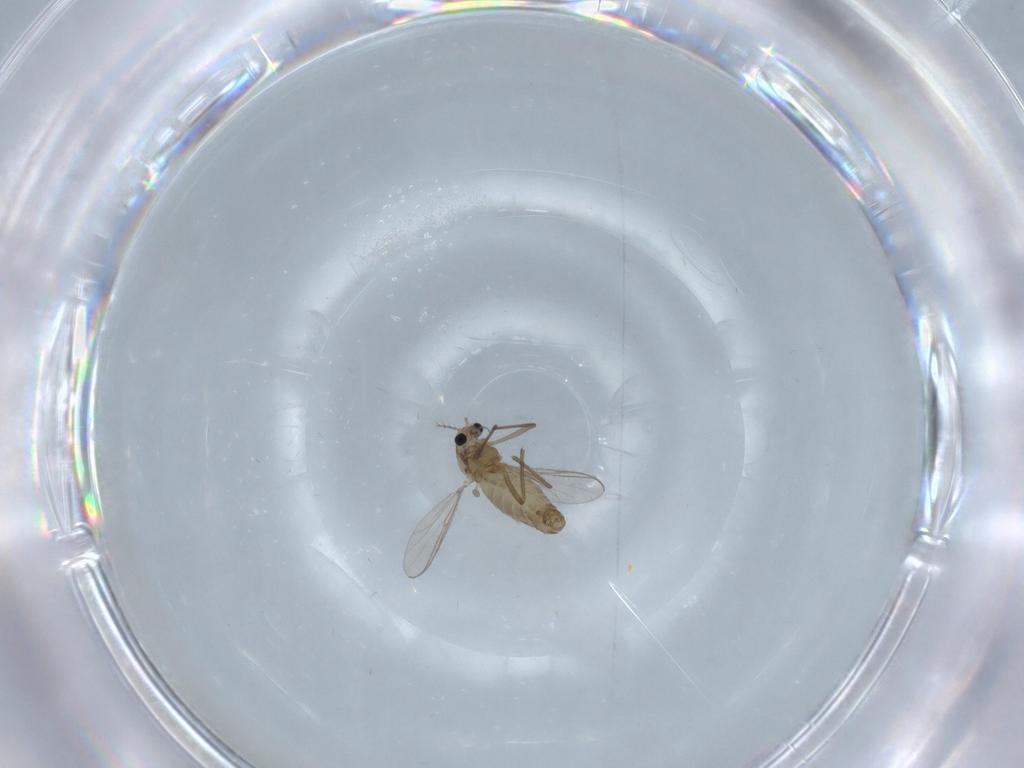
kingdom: Animalia
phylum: Arthropoda
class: Insecta
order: Diptera
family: Chironomidae
